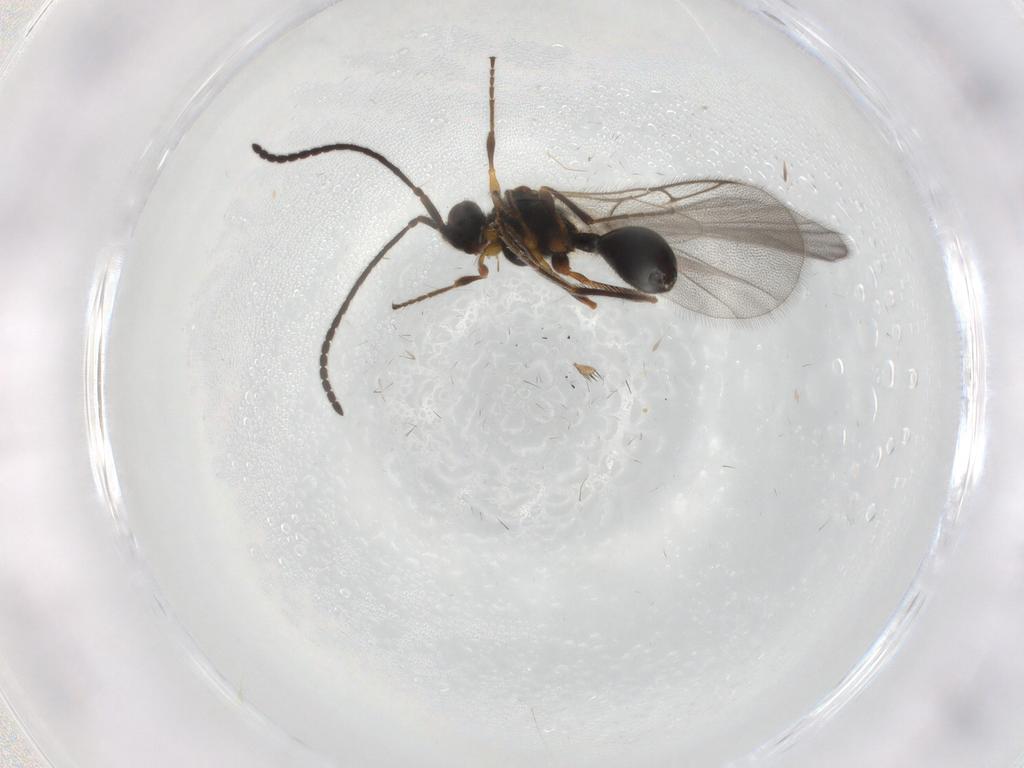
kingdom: Animalia
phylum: Arthropoda
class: Insecta
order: Hymenoptera
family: Diapriidae
